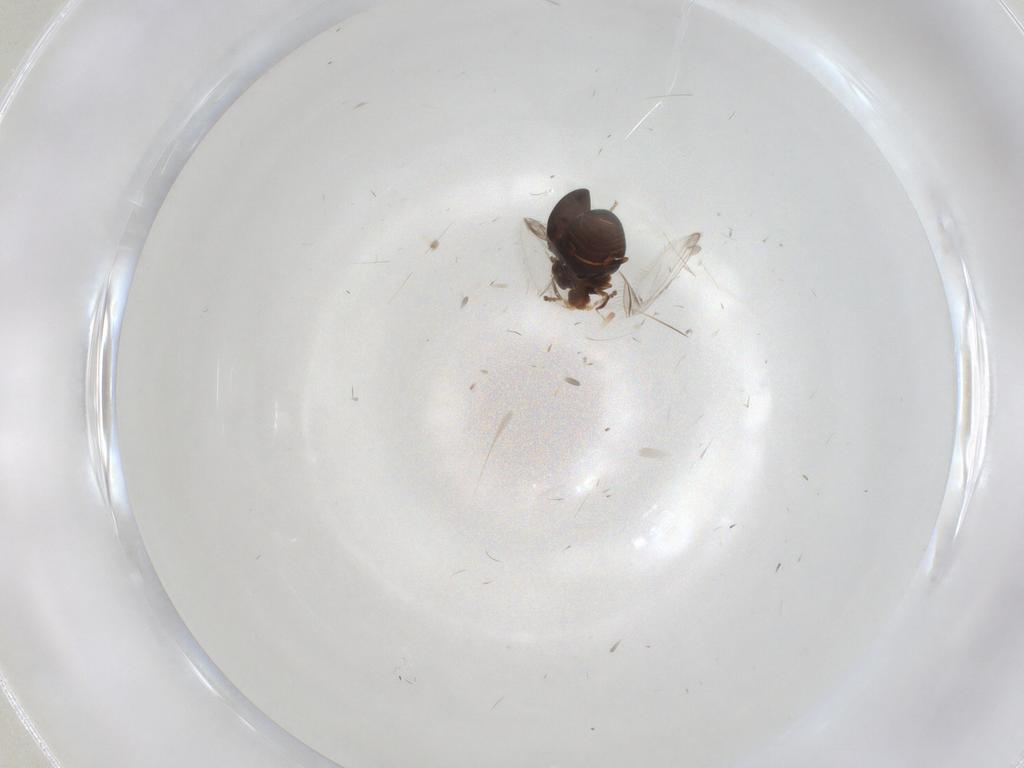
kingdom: Animalia
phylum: Arthropoda
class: Insecta
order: Coleoptera
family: Corylophidae
